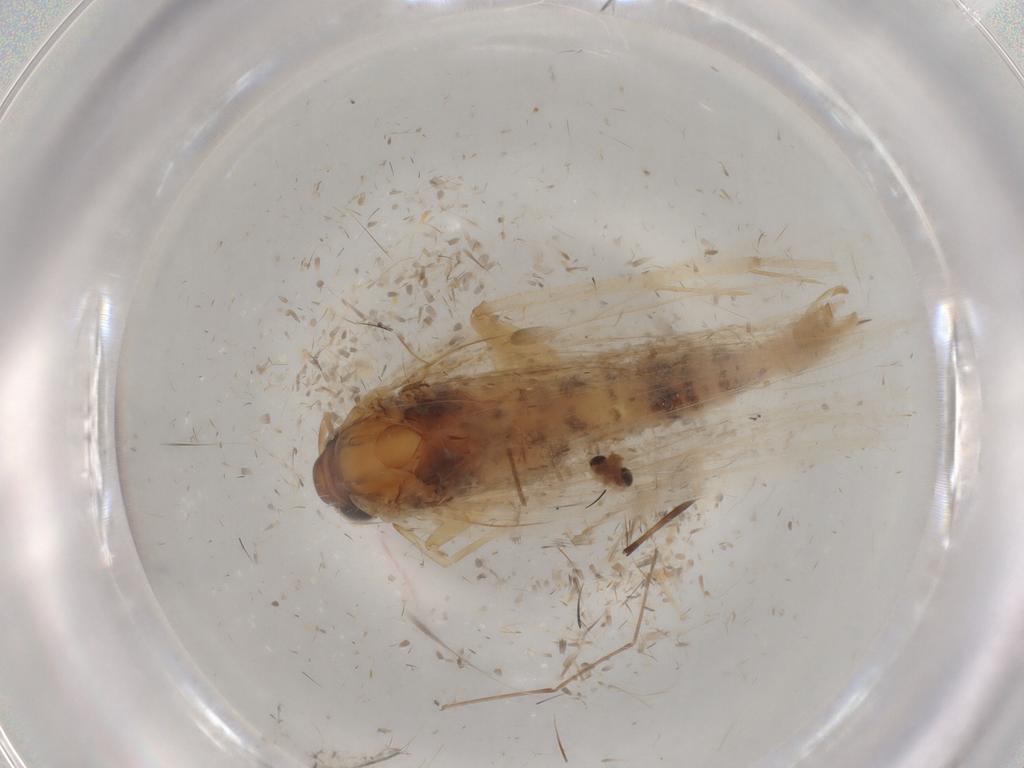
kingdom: Animalia
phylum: Arthropoda
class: Insecta
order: Lepidoptera
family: Gelechiidae
